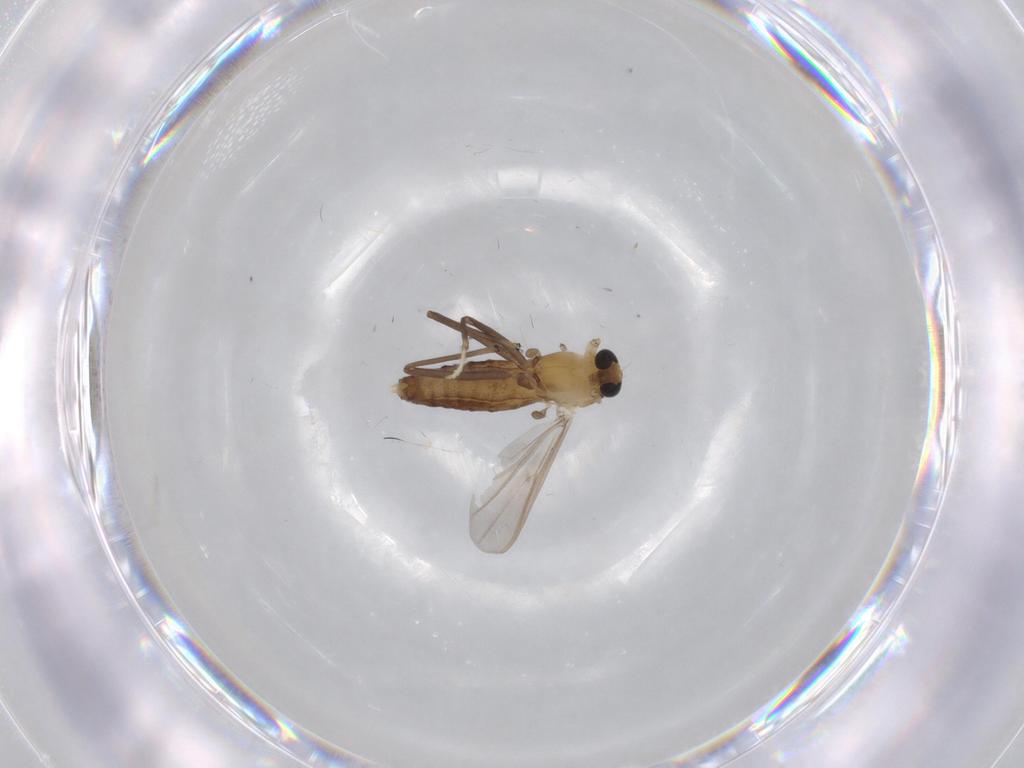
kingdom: Animalia
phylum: Arthropoda
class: Insecta
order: Diptera
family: Chironomidae
